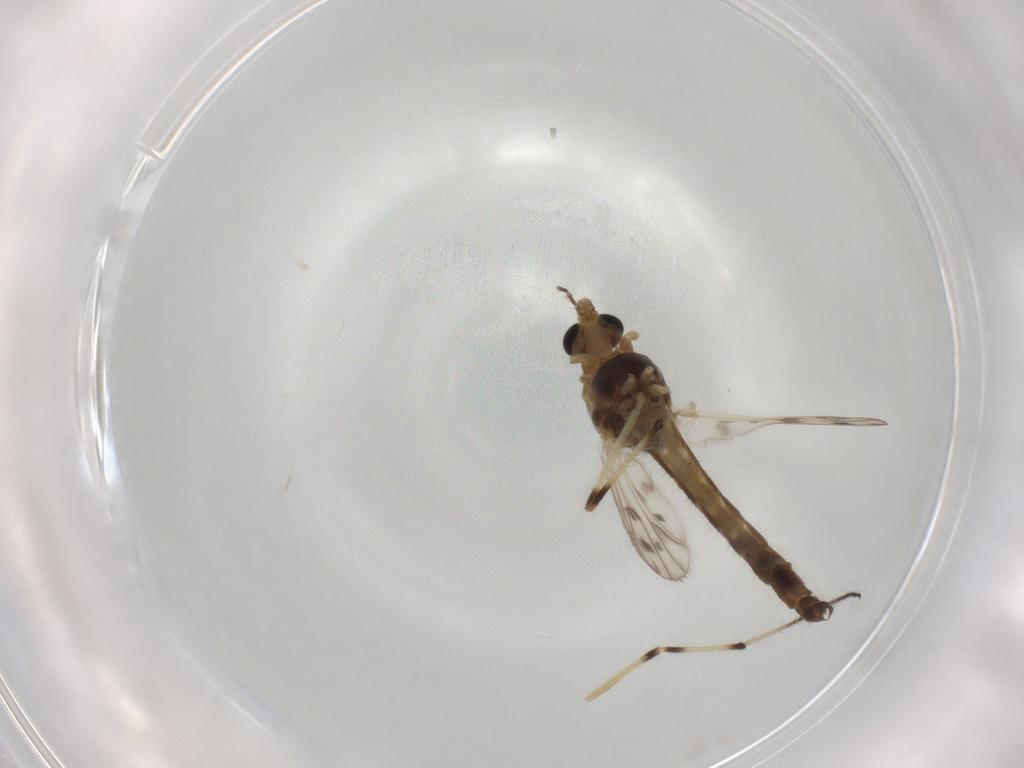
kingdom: Animalia
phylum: Arthropoda
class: Insecta
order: Diptera
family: Chironomidae
